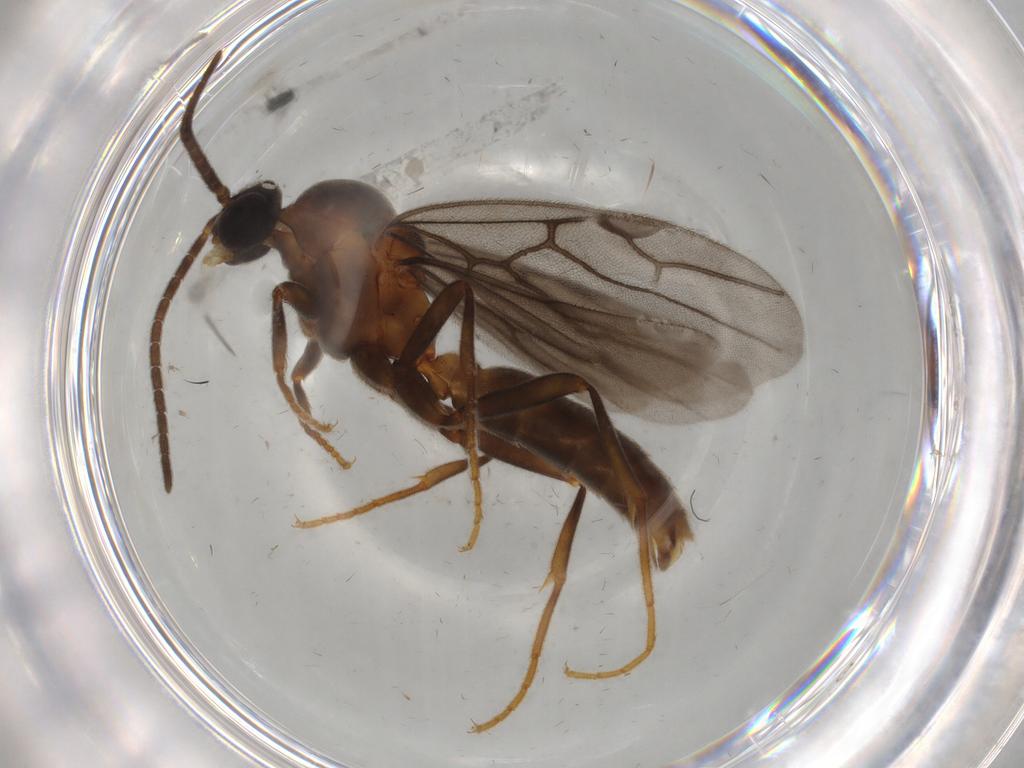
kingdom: Animalia
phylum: Arthropoda
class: Insecta
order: Hymenoptera
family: Formicidae
